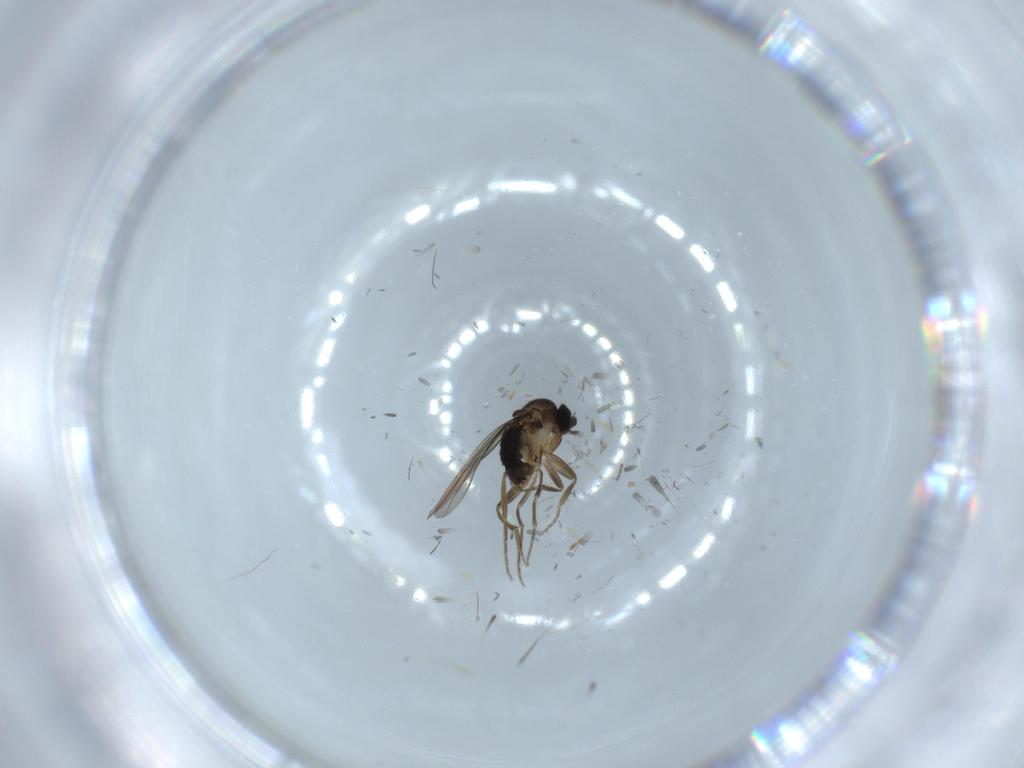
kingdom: Animalia
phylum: Arthropoda
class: Insecta
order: Diptera
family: Phoridae
